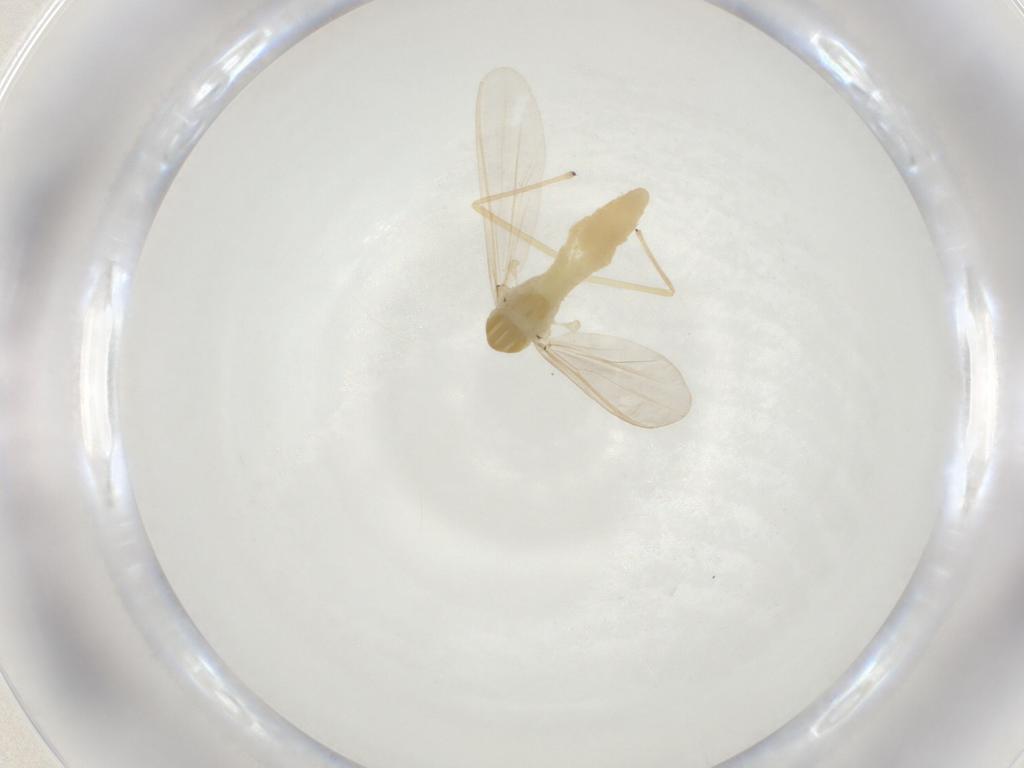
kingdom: Animalia
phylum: Arthropoda
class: Insecta
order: Diptera
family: Chironomidae
